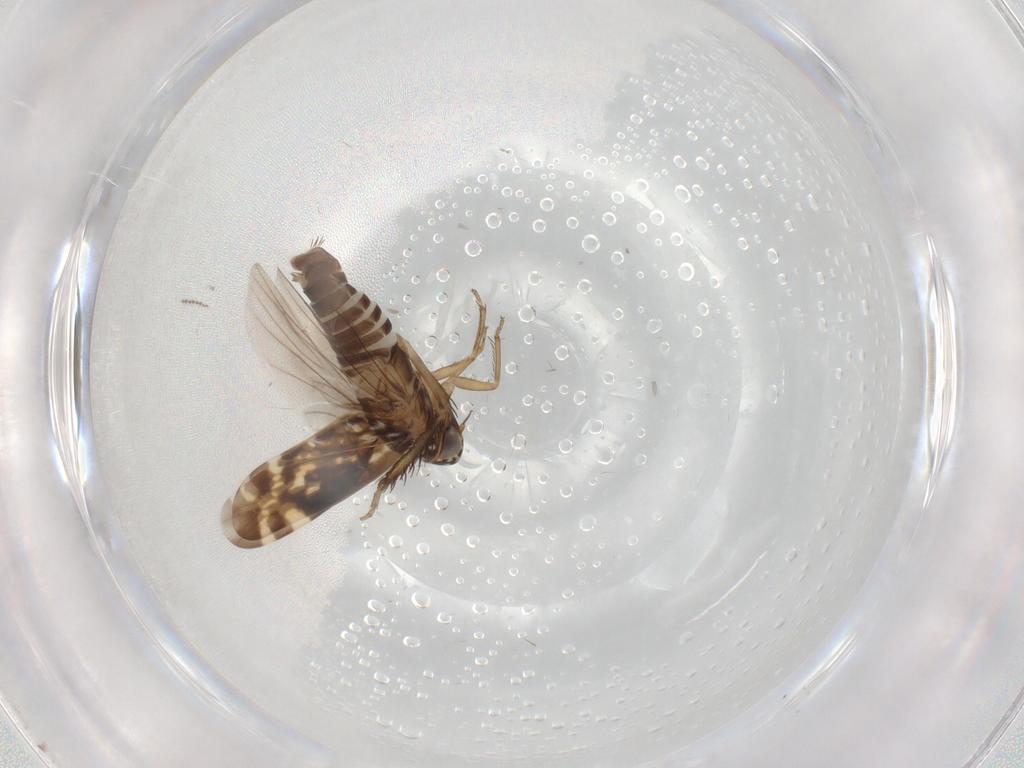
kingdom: Animalia
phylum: Arthropoda
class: Insecta
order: Hemiptera
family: Cicadellidae
